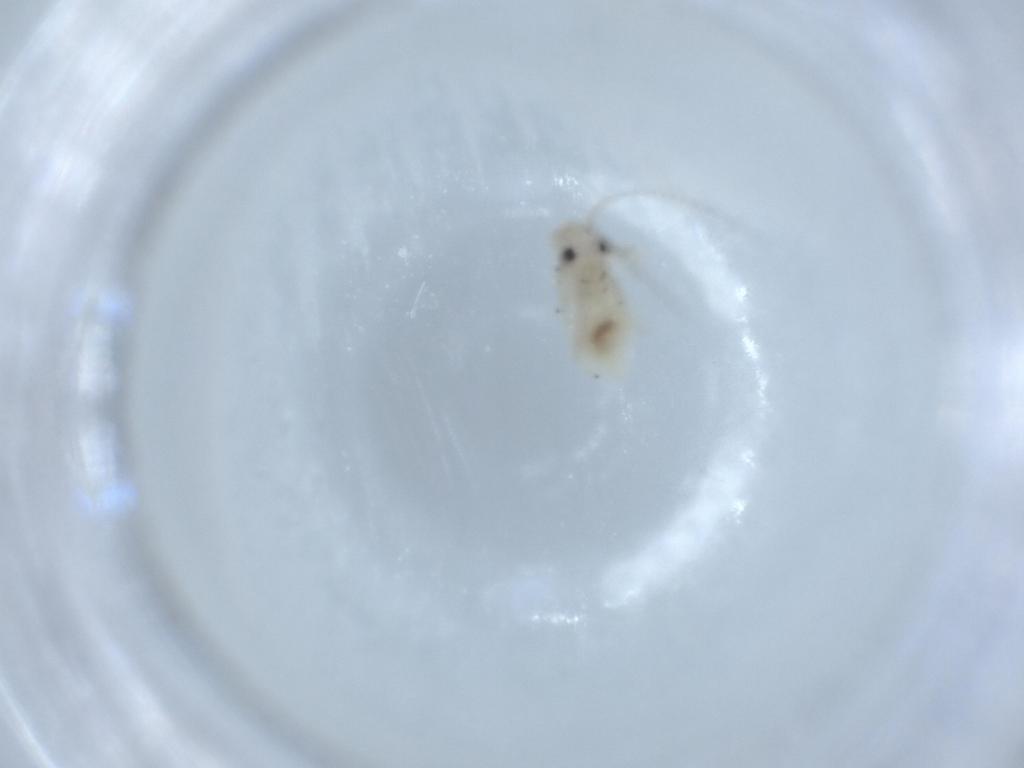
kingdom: Animalia
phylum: Arthropoda
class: Insecta
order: Psocodea
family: Caeciliusidae
